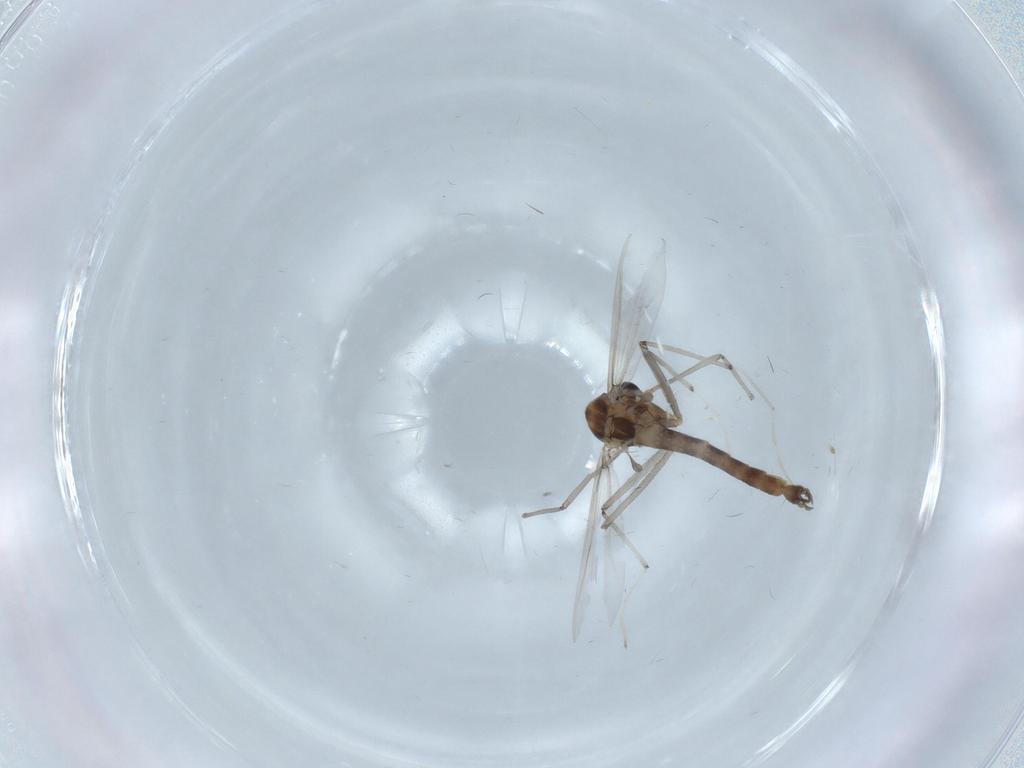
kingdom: Animalia
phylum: Arthropoda
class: Insecta
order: Diptera
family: Chironomidae
